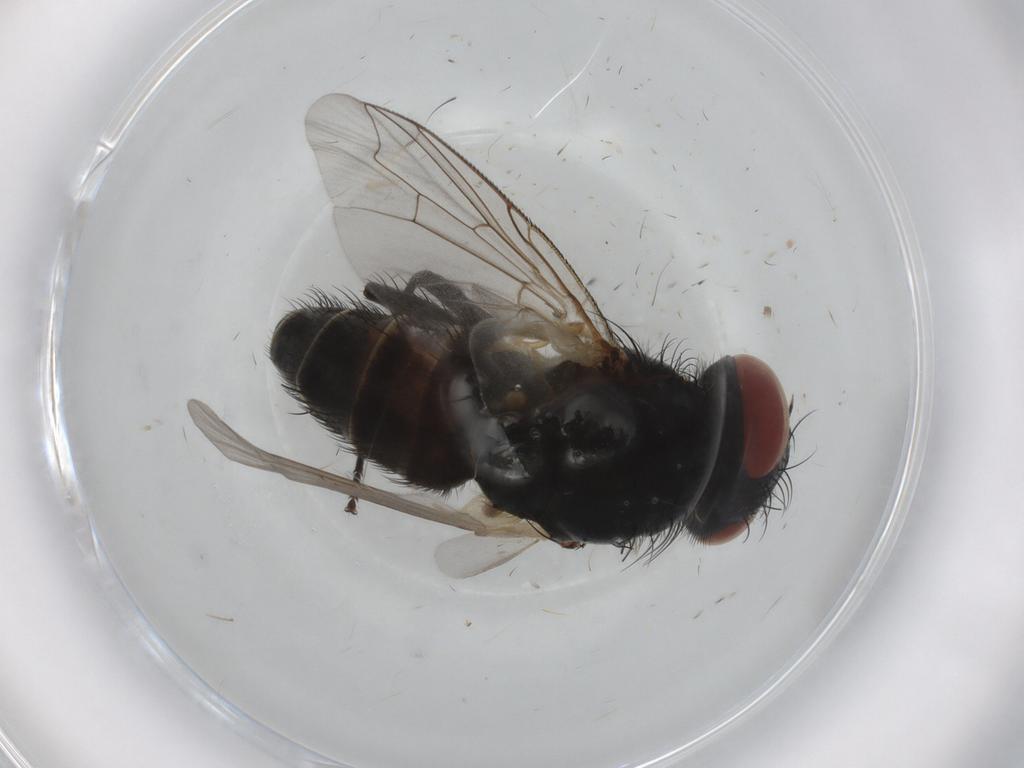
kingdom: Animalia
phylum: Arthropoda
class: Insecta
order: Diptera
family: Sarcophagidae
